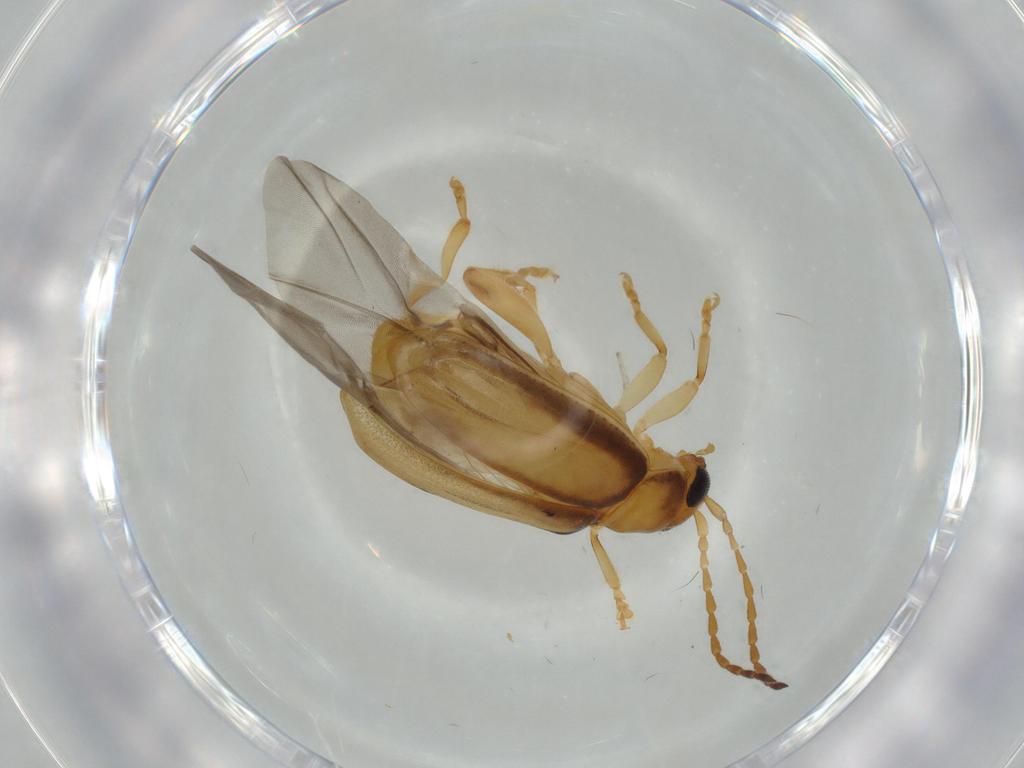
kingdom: Animalia
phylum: Arthropoda
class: Insecta
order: Coleoptera
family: Chrysomelidae
